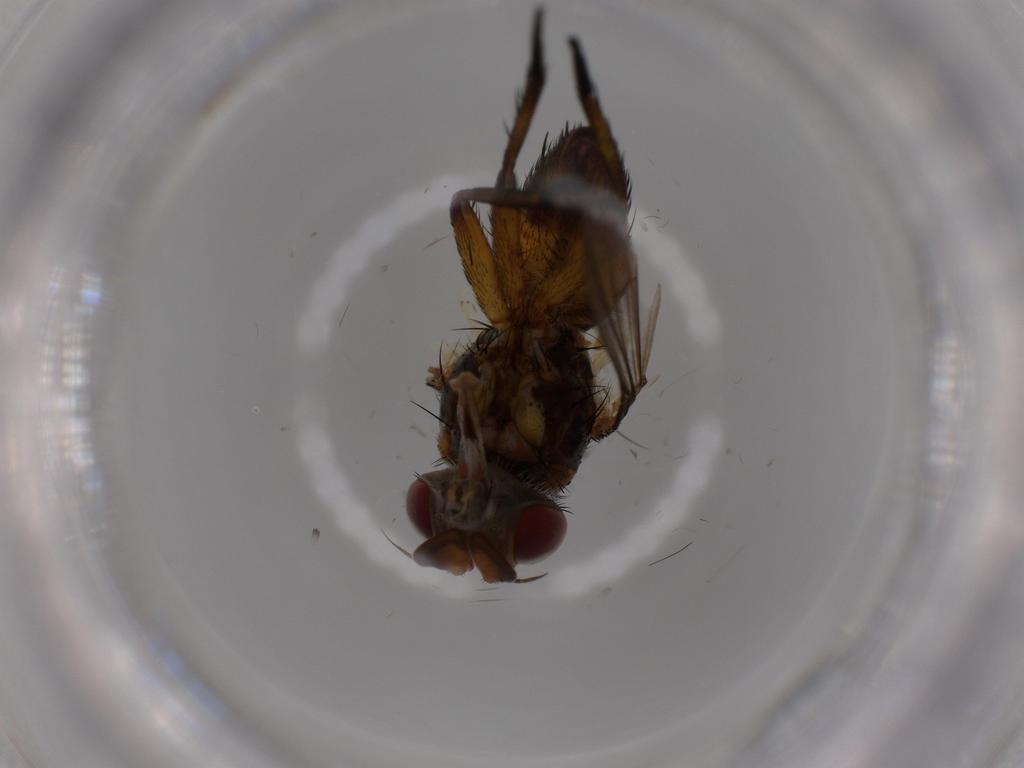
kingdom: Animalia
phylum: Arthropoda
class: Insecta
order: Diptera
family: Tachinidae
